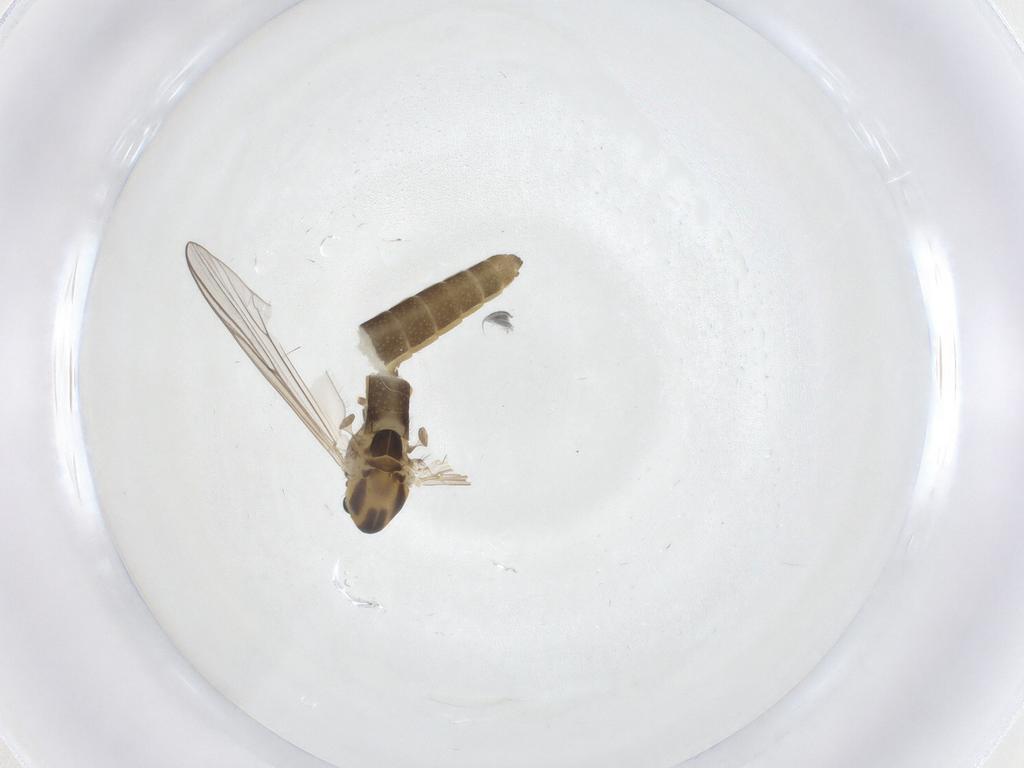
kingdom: Animalia
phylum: Arthropoda
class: Insecta
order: Diptera
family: Chironomidae
